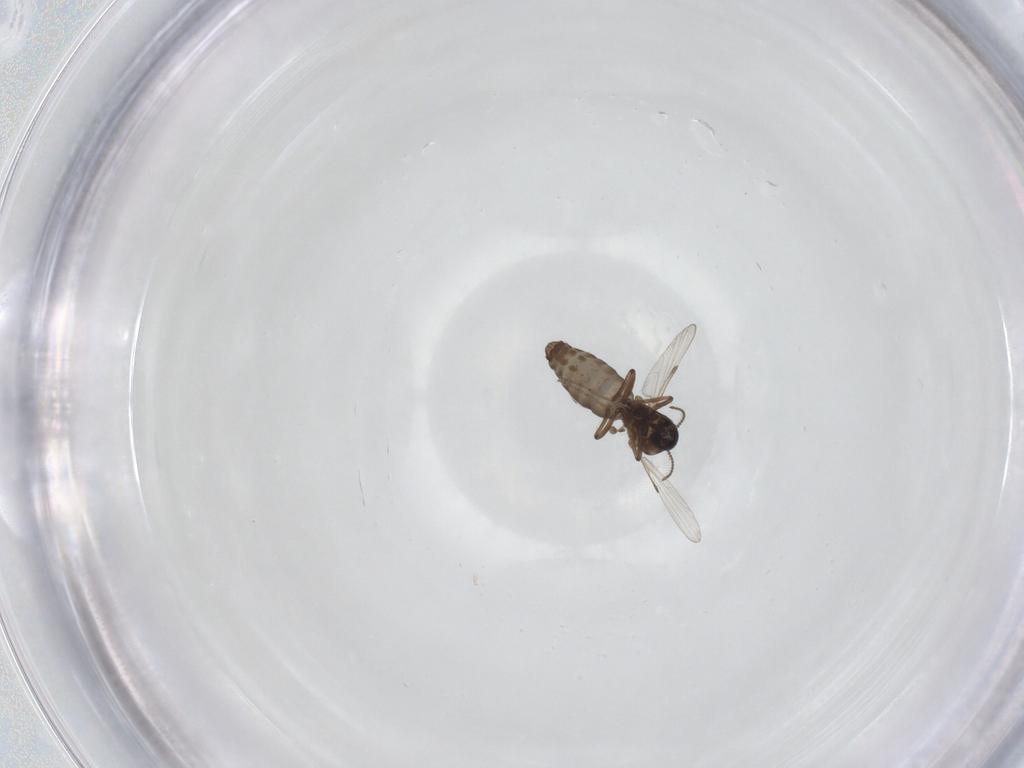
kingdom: Animalia
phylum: Arthropoda
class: Insecta
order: Diptera
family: Ceratopogonidae
